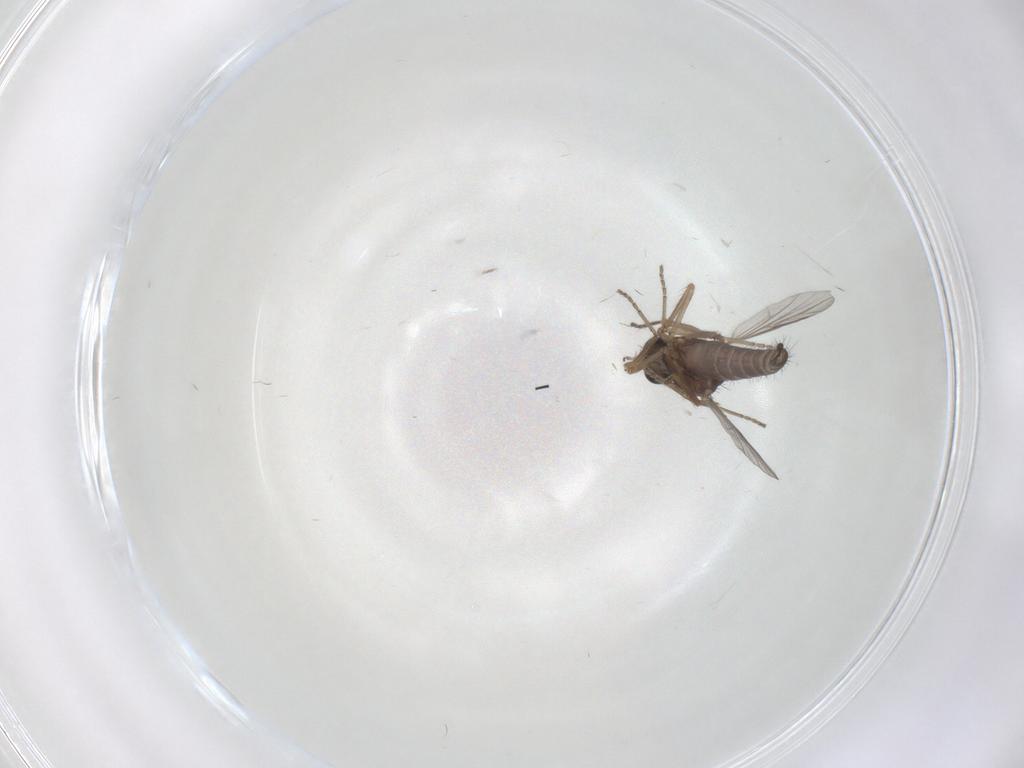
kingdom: Animalia
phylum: Arthropoda
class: Insecta
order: Diptera
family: Ceratopogonidae
